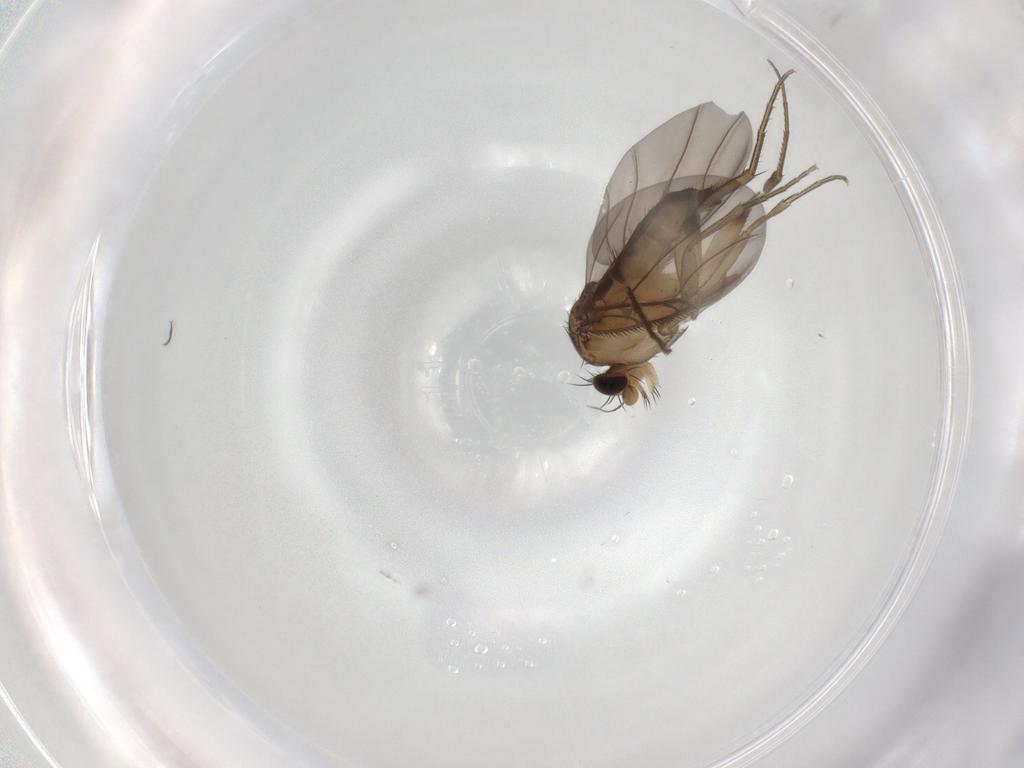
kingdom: Animalia
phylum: Arthropoda
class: Insecta
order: Diptera
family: Phoridae
